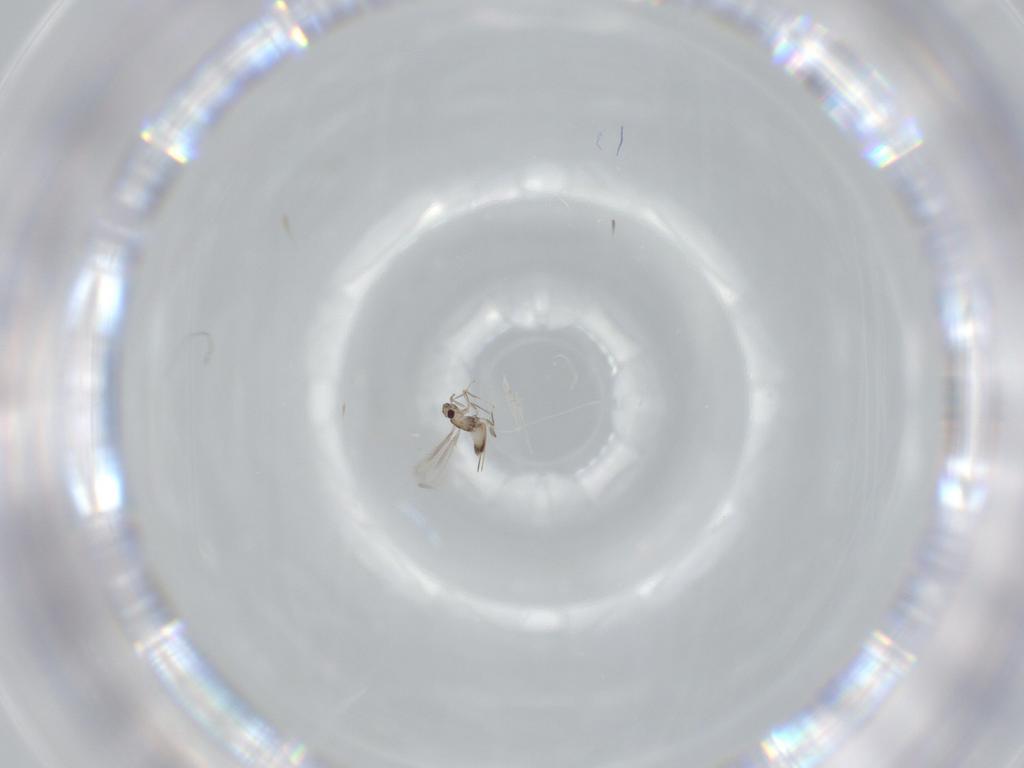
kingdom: Animalia
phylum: Arthropoda
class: Insecta
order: Hymenoptera
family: Mymaridae
